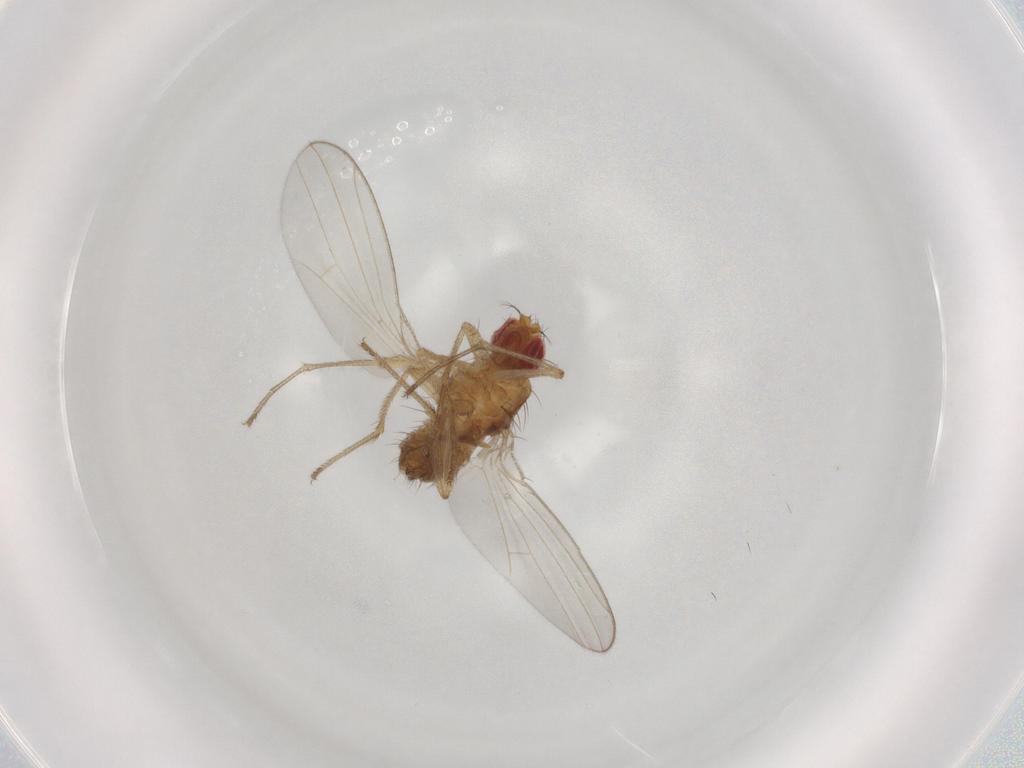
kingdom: Animalia
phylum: Arthropoda
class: Insecta
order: Diptera
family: Drosophilidae
